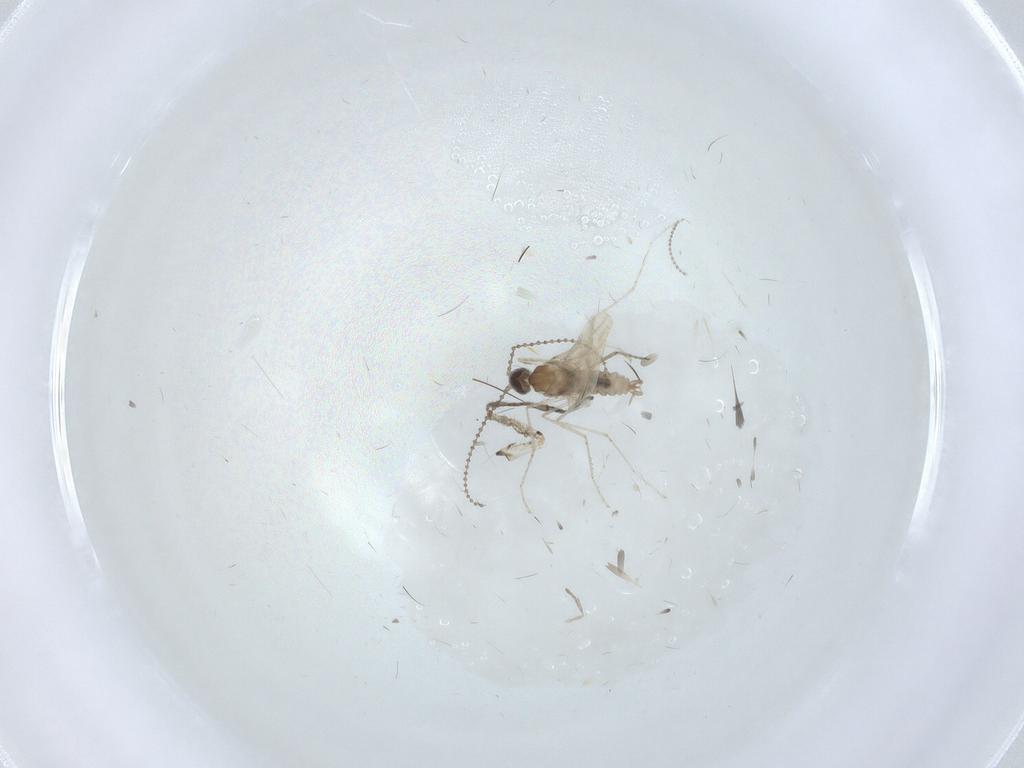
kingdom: Animalia
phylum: Arthropoda
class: Insecta
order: Diptera
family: Cecidomyiidae
